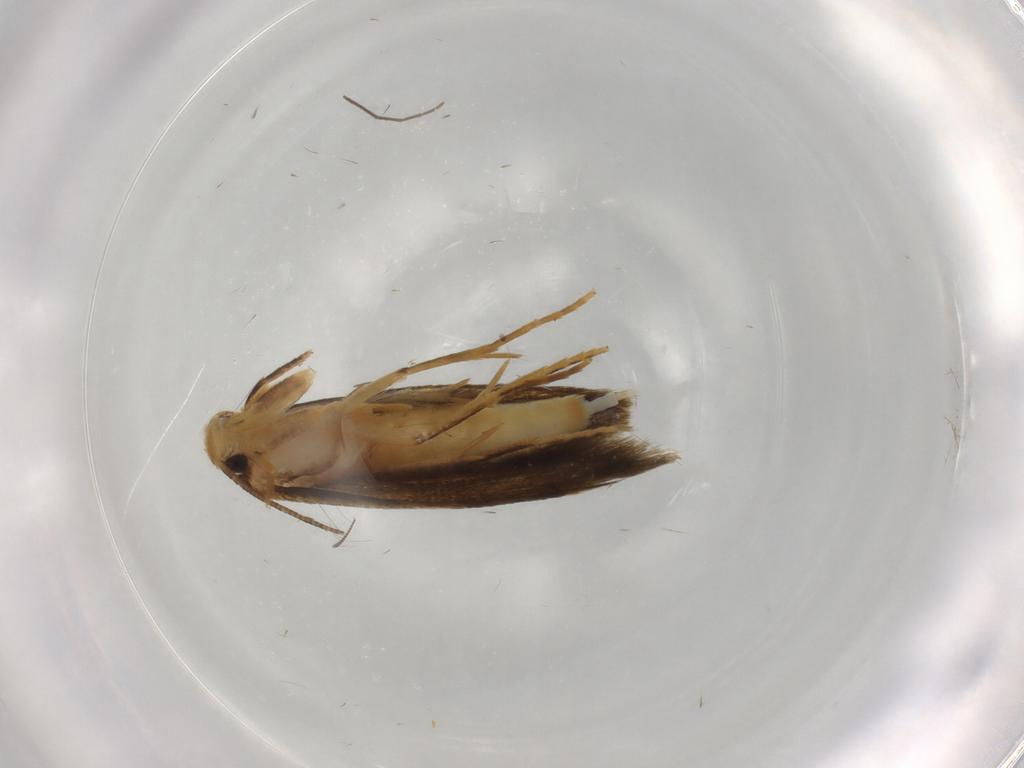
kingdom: Animalia
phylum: Arthropoda
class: Insecta
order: Lepidoptera
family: Tineidae
